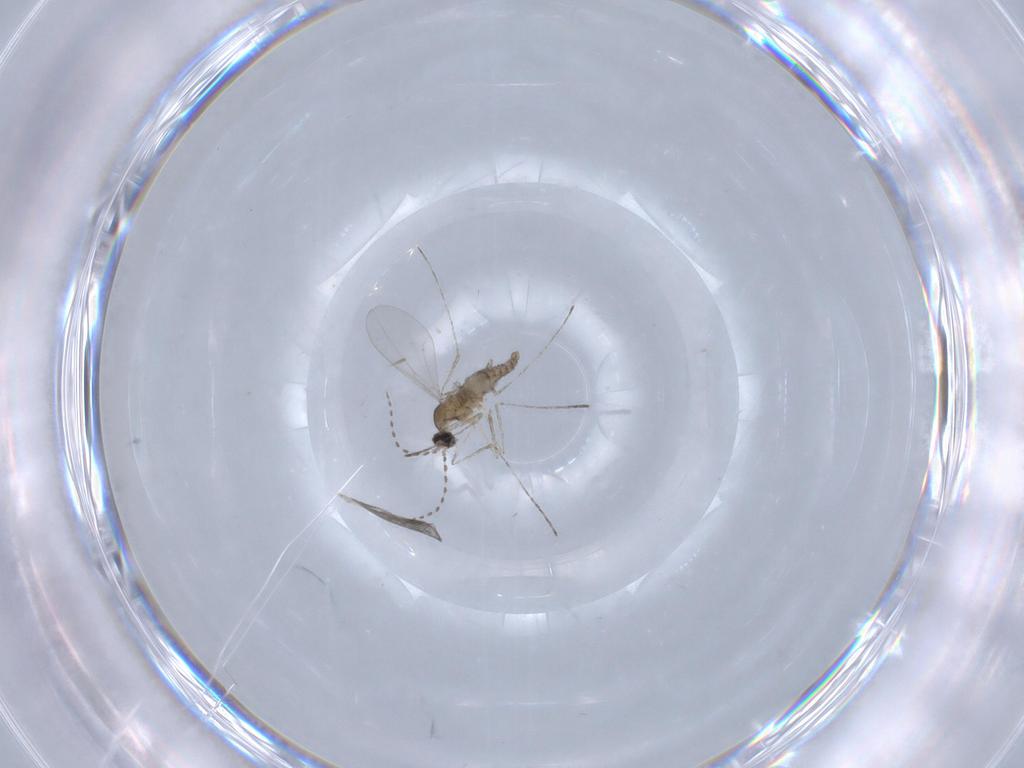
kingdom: Animalia
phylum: Arthropoda
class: Insecta
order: Diptera
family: Cecidomyiidae
